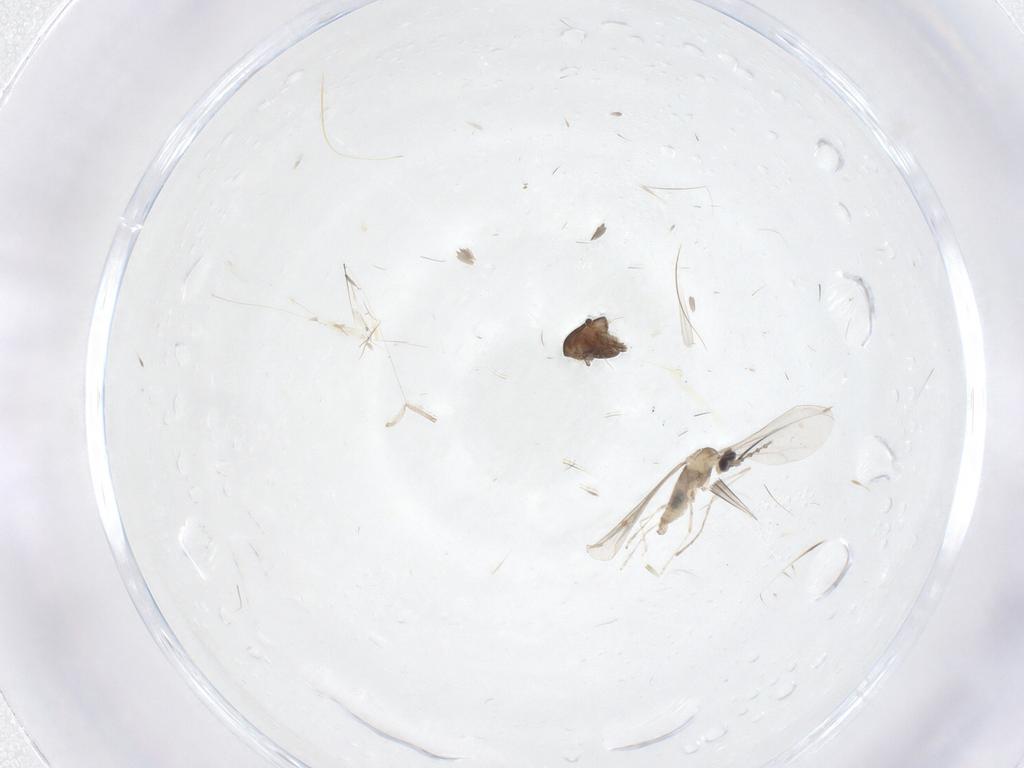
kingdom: Animalia
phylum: Arthropoda
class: Insecta
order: Diptera
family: Cecidomyiidae
